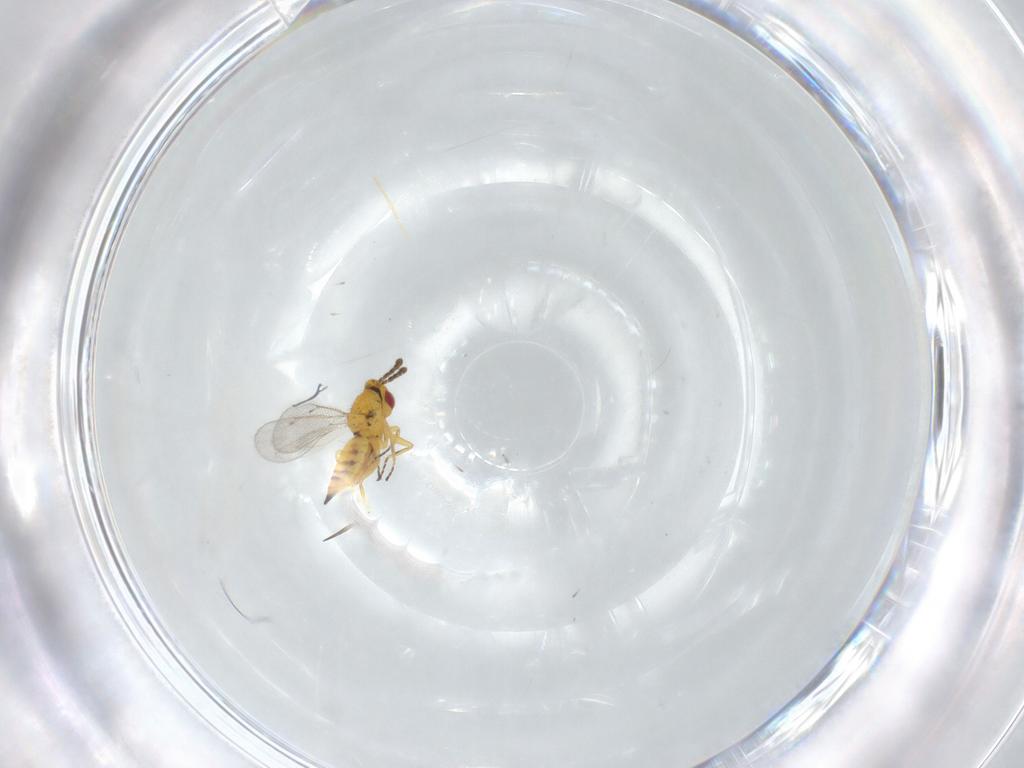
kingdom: Animalia
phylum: Arthropoda
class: Insecta
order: Hymenoptera
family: Eulophidae
